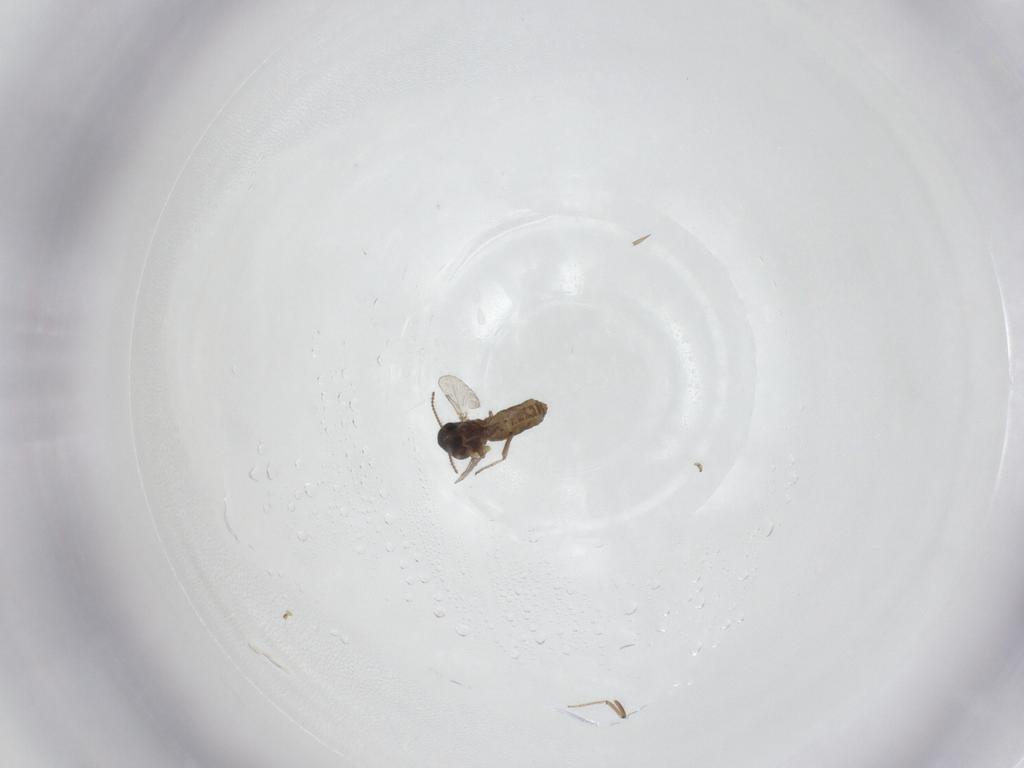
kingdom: Animalia
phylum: Arthropoda
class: Insecta
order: Diptera
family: Ceratopogonidae
